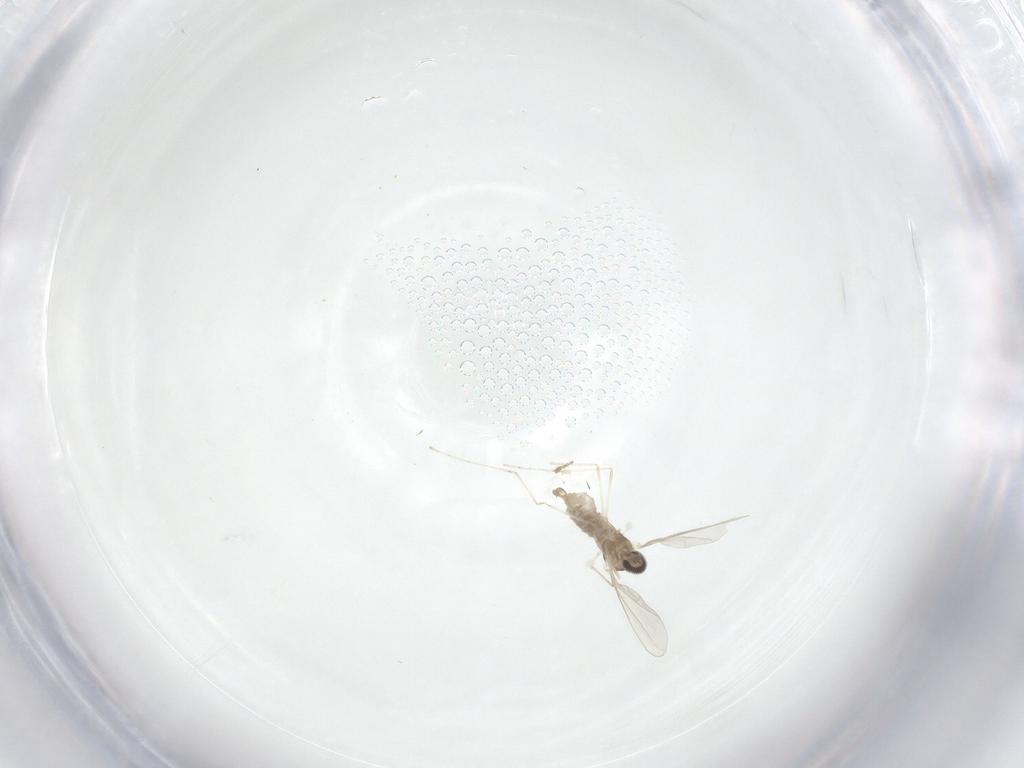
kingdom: Animalia
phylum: Arthropoda
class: Insecta
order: Diptera
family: Cecidomyiidae
